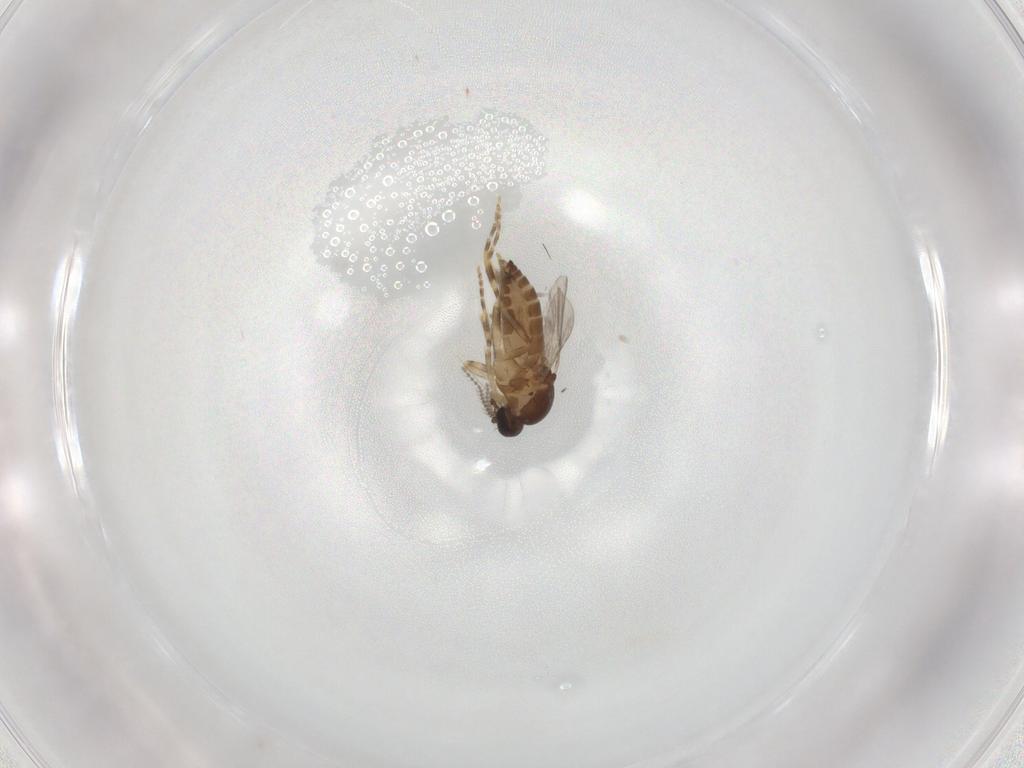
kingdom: Animalia
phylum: Arthropoda
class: Insecta
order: Diptera
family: Ceratopogonidae
